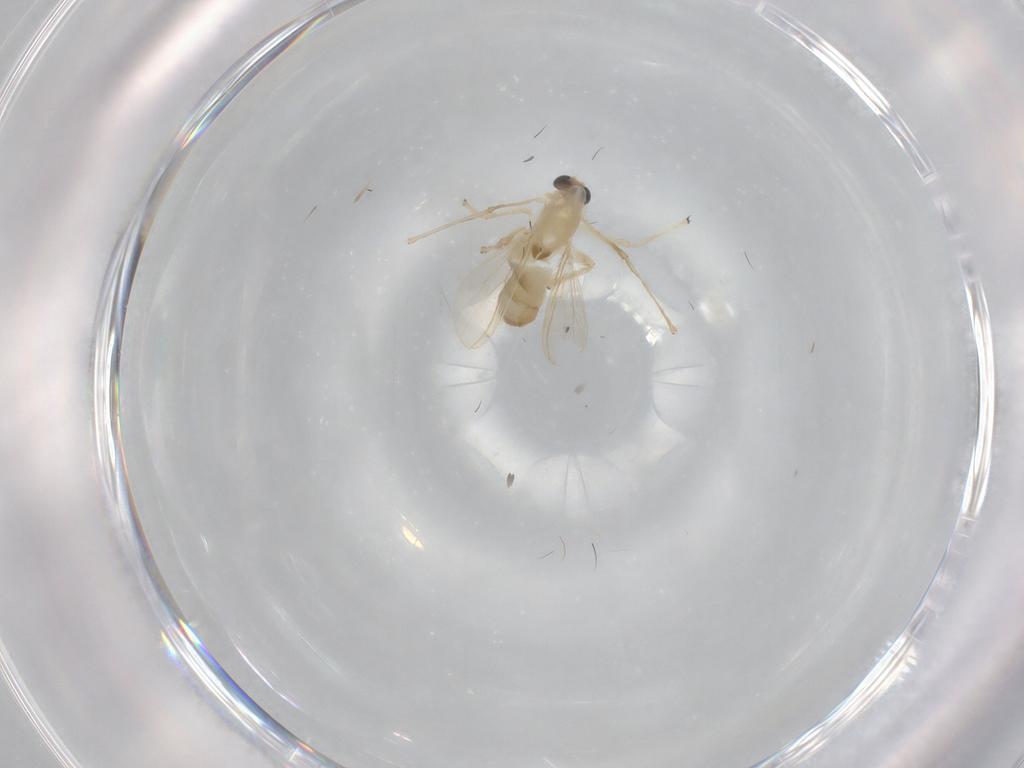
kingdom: Animalia
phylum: Arthropoda
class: Insecta
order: Diptera
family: Chironomidae
